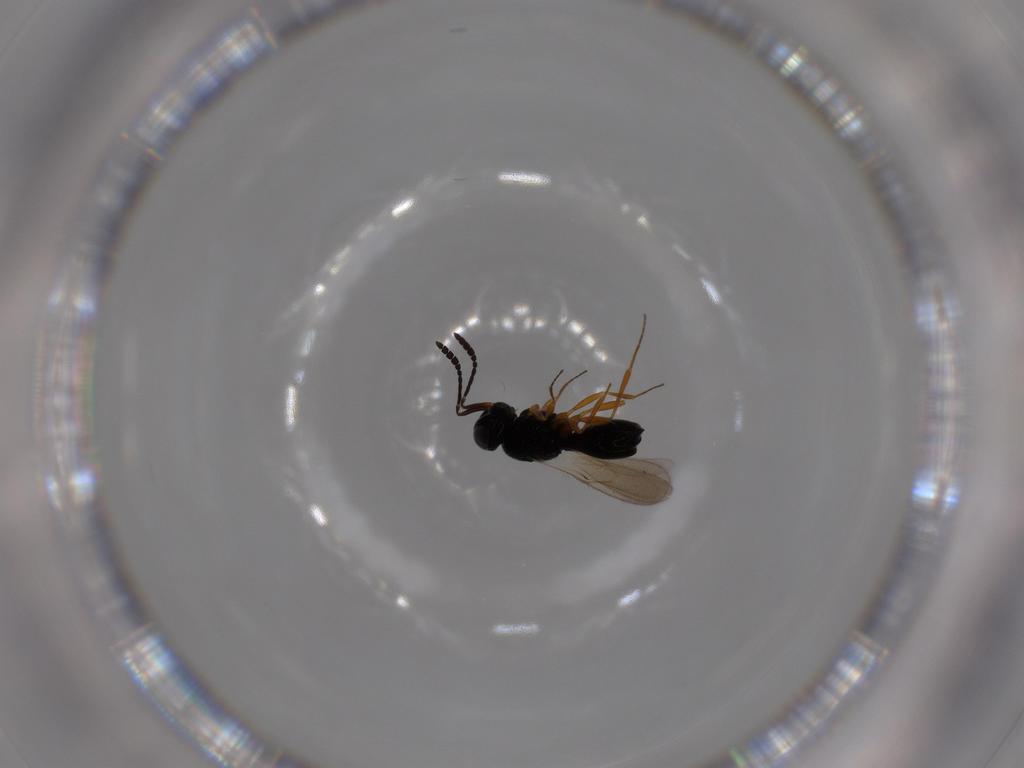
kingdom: Animalia
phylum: Arthropoda
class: Insecta
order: Hymenoptera
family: Scelionidae
